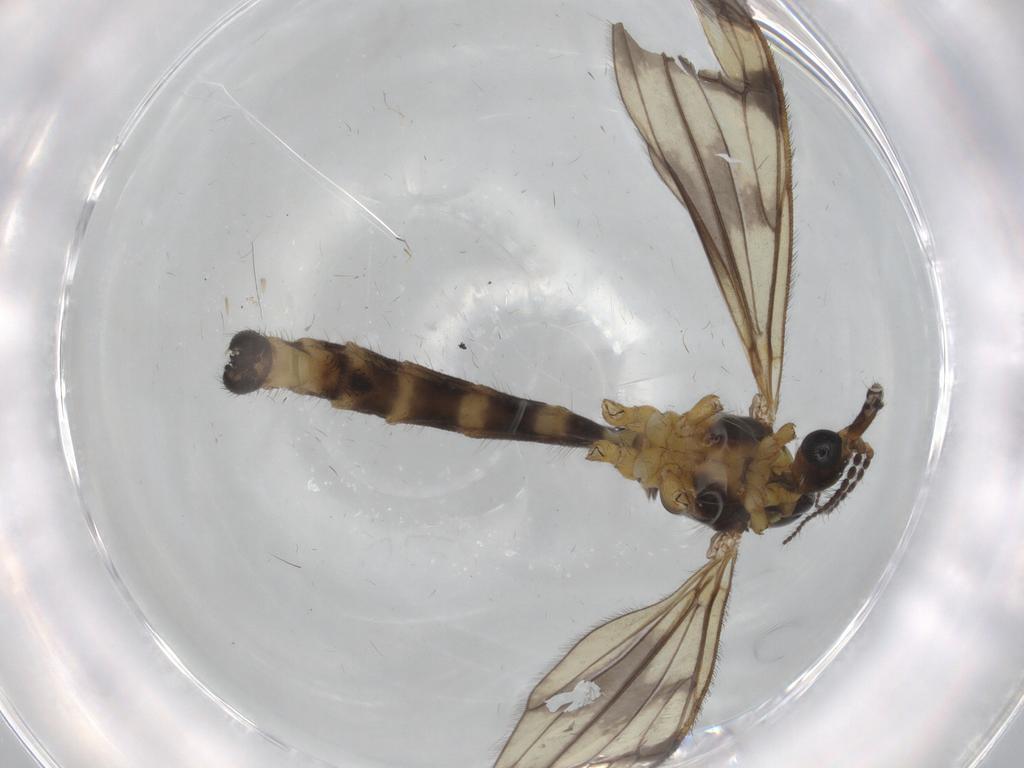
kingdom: Animalia
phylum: Arthropoda
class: Insecta
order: Diptera
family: Limoniidae
